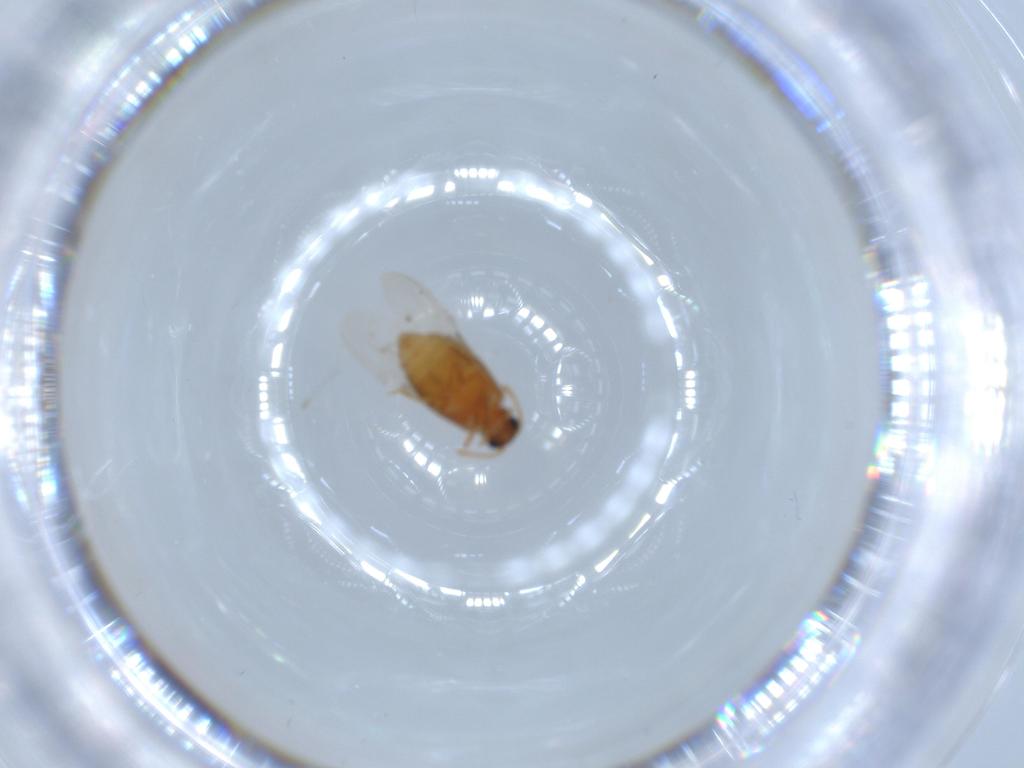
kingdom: Animalia
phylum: Arthropoda
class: Insecta
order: Coleoptera
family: Aderidae
